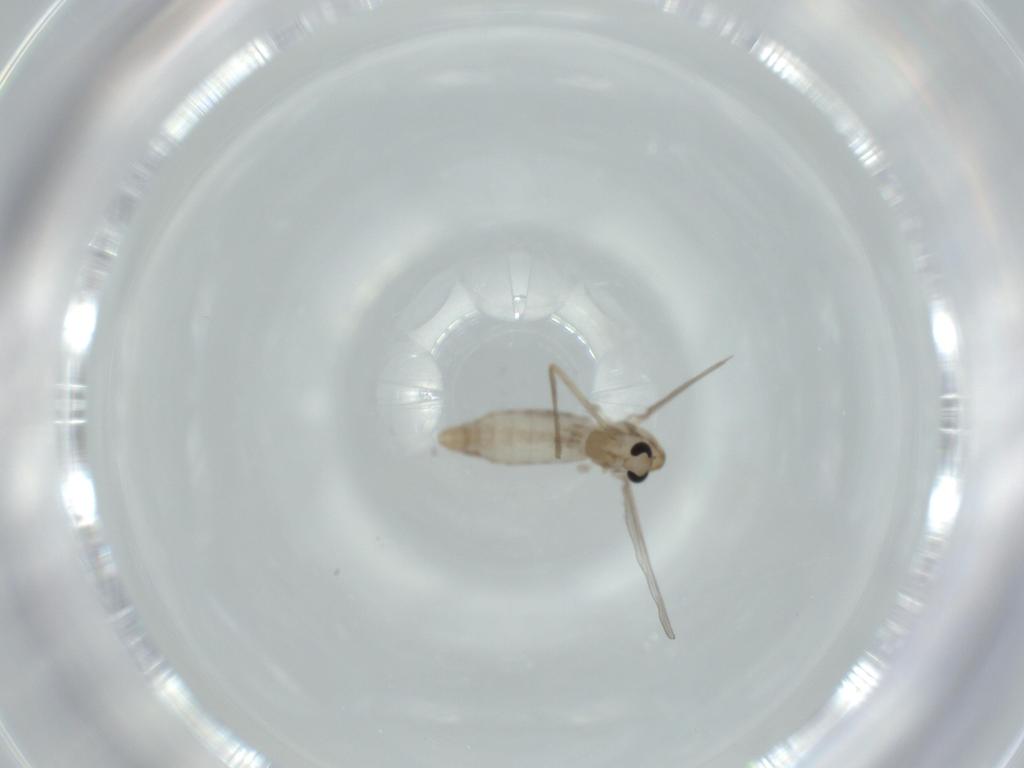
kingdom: Animalia
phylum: Arthropoda
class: Insecta
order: Diptera
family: Chironomidae
